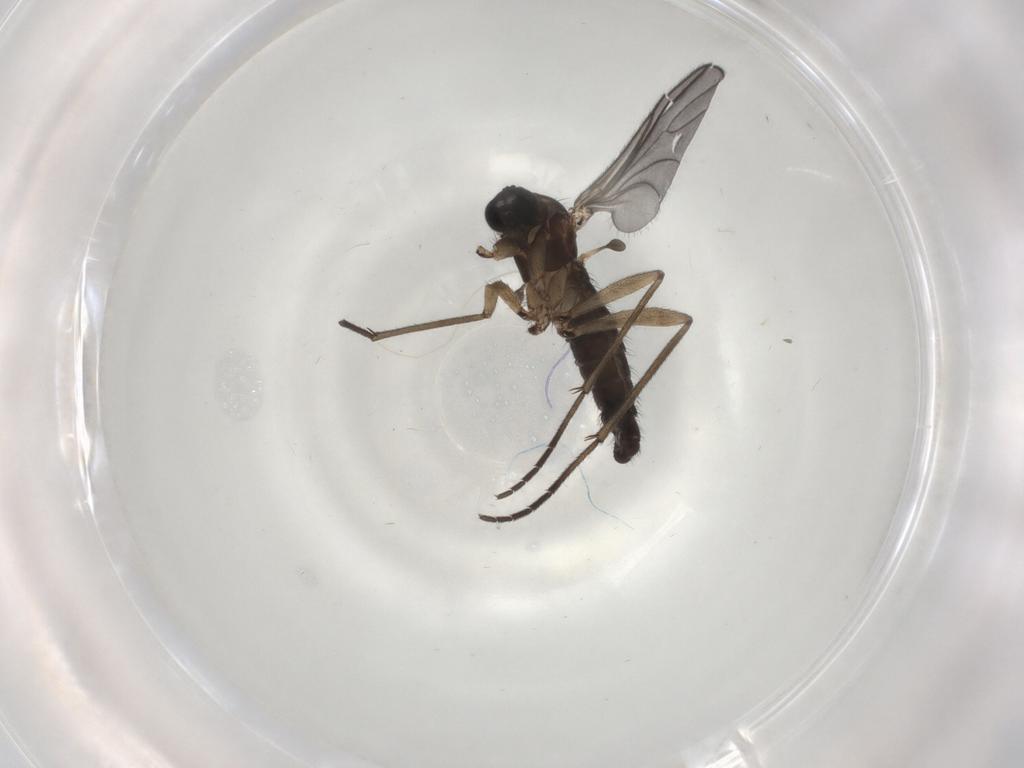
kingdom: Animalia
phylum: Arthropoda
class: Insecta
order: Diptera
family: Sciaridae
